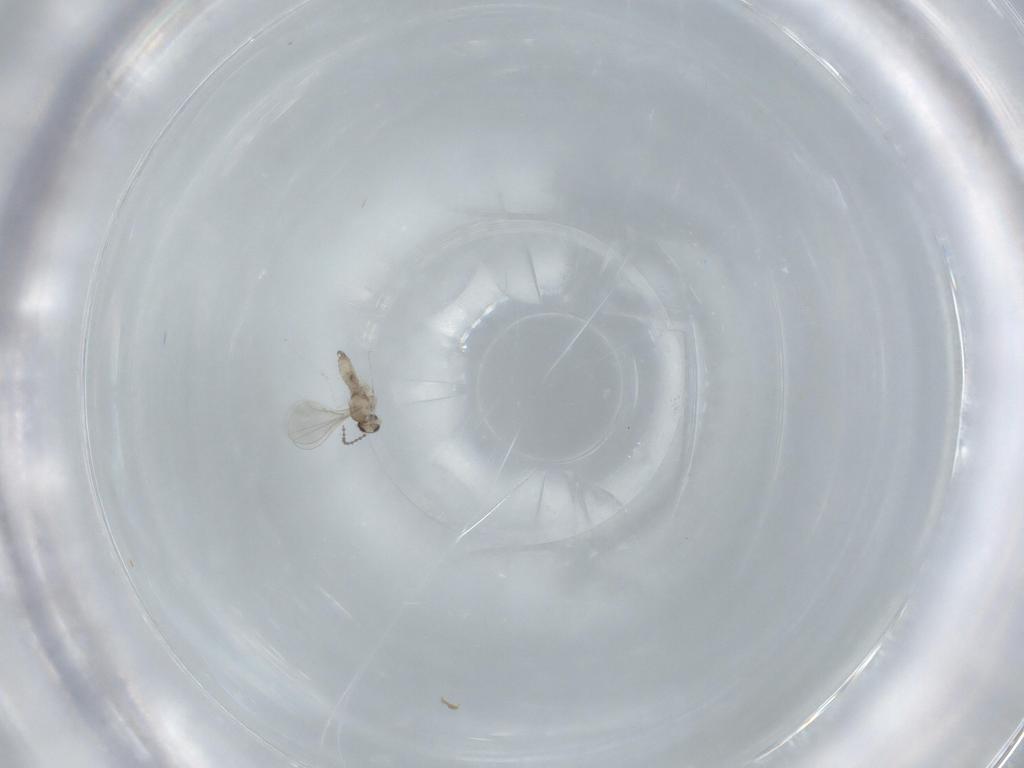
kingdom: Animalia
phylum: Arthropoda
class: Insecta
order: Diptera
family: Cecidomyiidae
